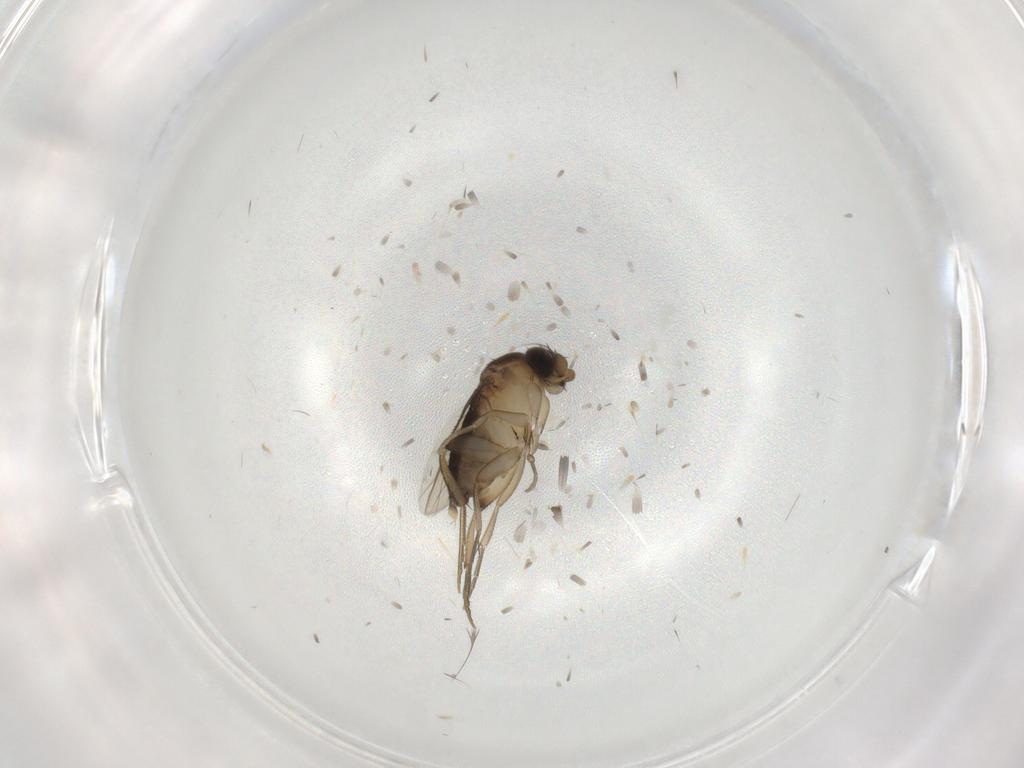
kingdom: Animalia
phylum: Arthropoda
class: Insecta
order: Diptera
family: Phoridae
